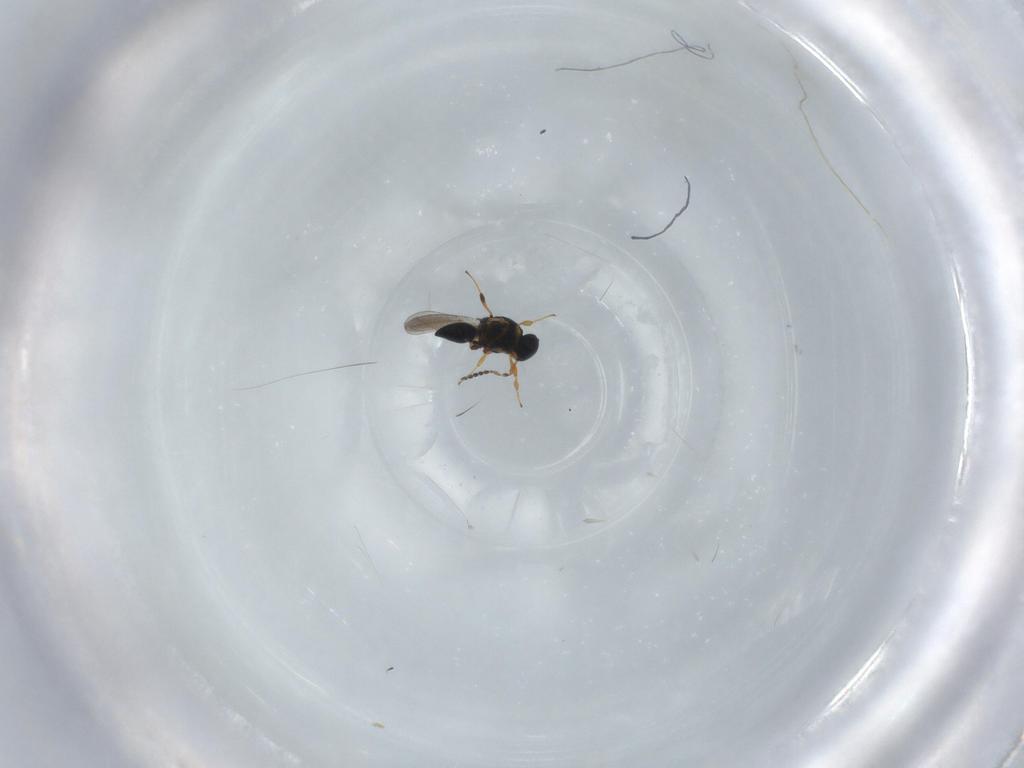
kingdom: Animalia
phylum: Arthropoda
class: Insecta
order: Hymenoptera
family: Platygastridae
